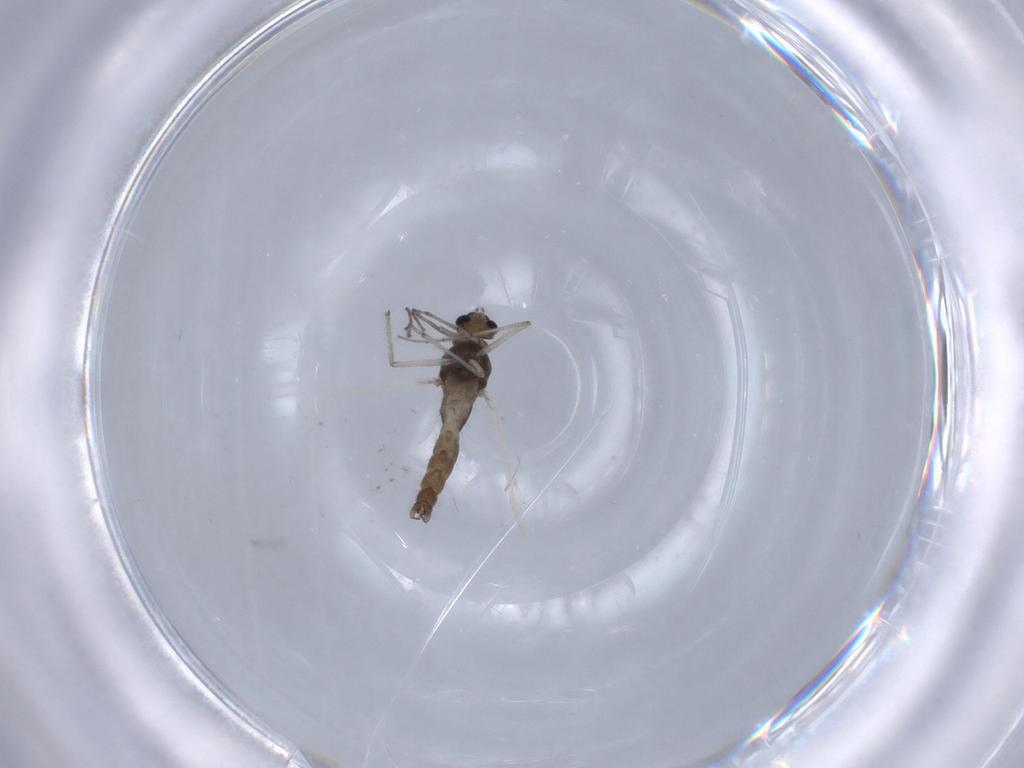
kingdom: Animalia
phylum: Arthropoda
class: Insecta
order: Diptera
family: Chironomidae
